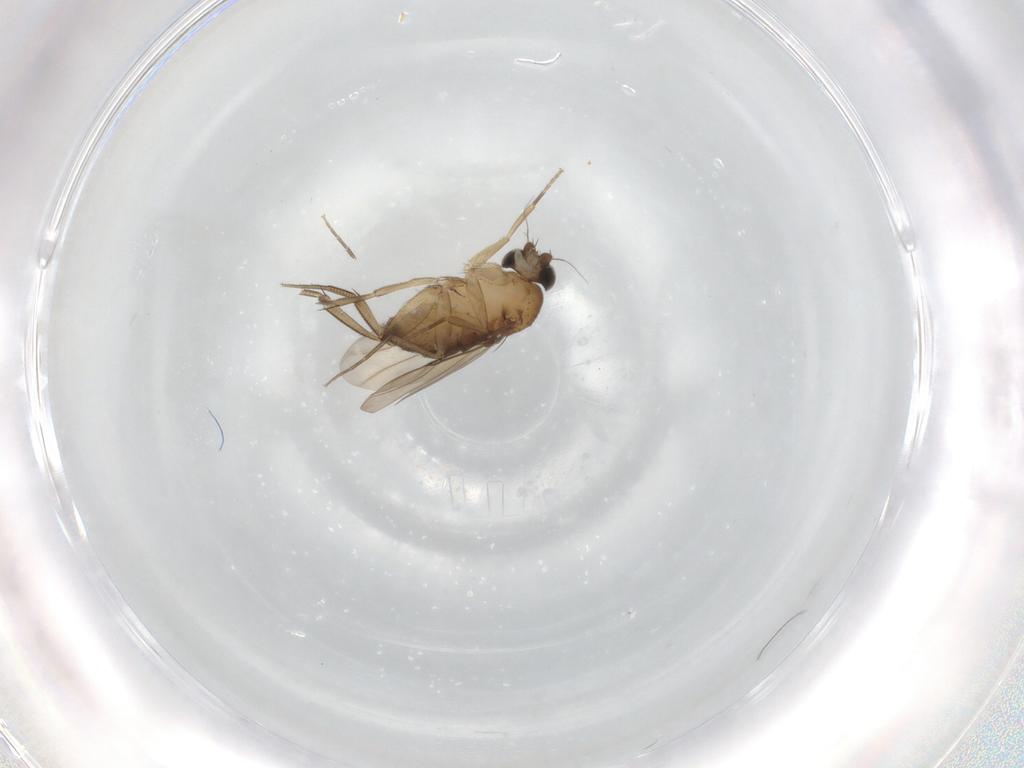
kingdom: Animalia
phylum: Arthropoda
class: Insecta
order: Diptera
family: Phoridae
